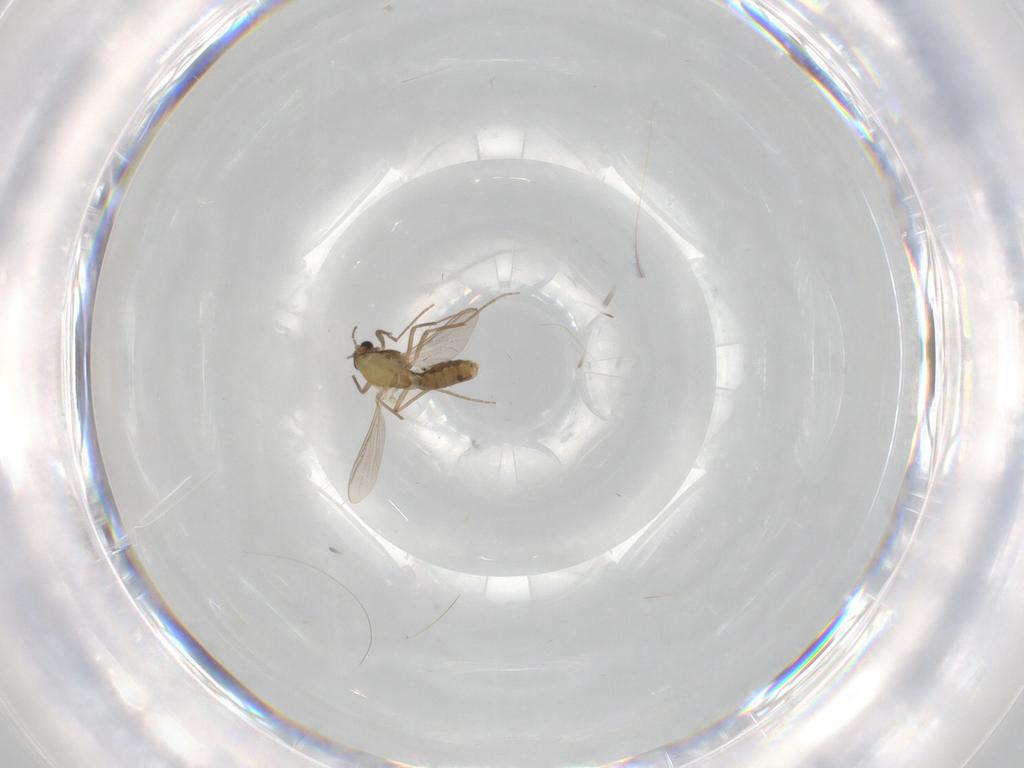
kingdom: Animalia
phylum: Arthropoda
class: Insecta
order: Diptera
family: Chironomidae
